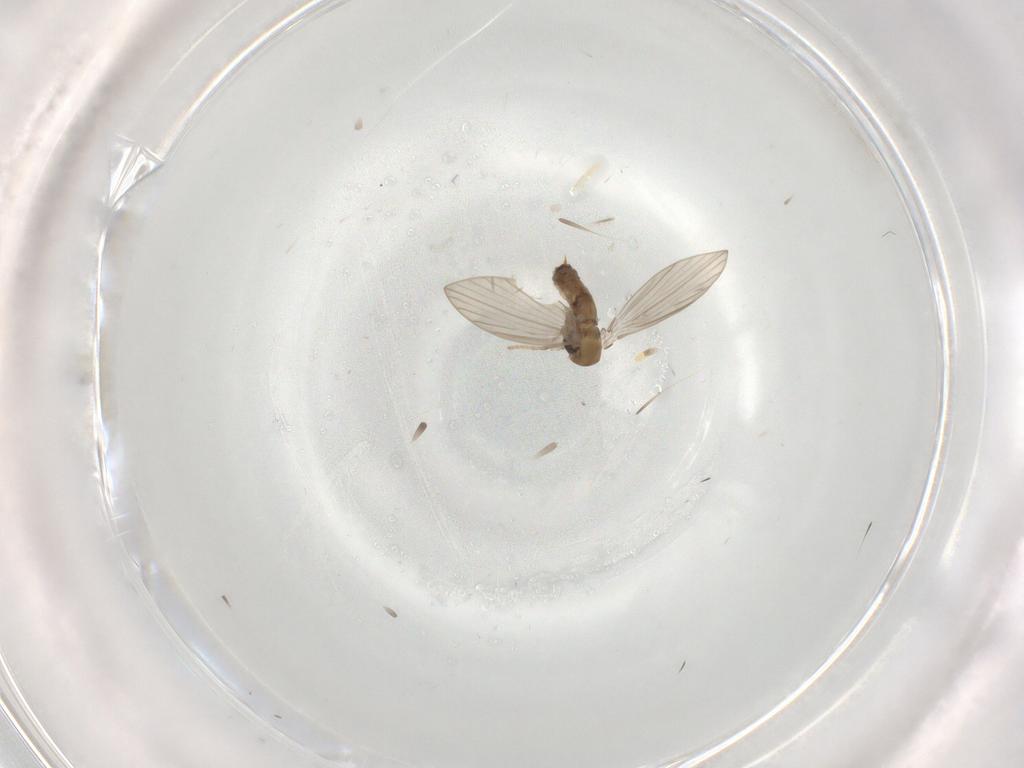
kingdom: Animalia
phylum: Arthropoda
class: Insecta
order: Diptera
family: Psychodidae
